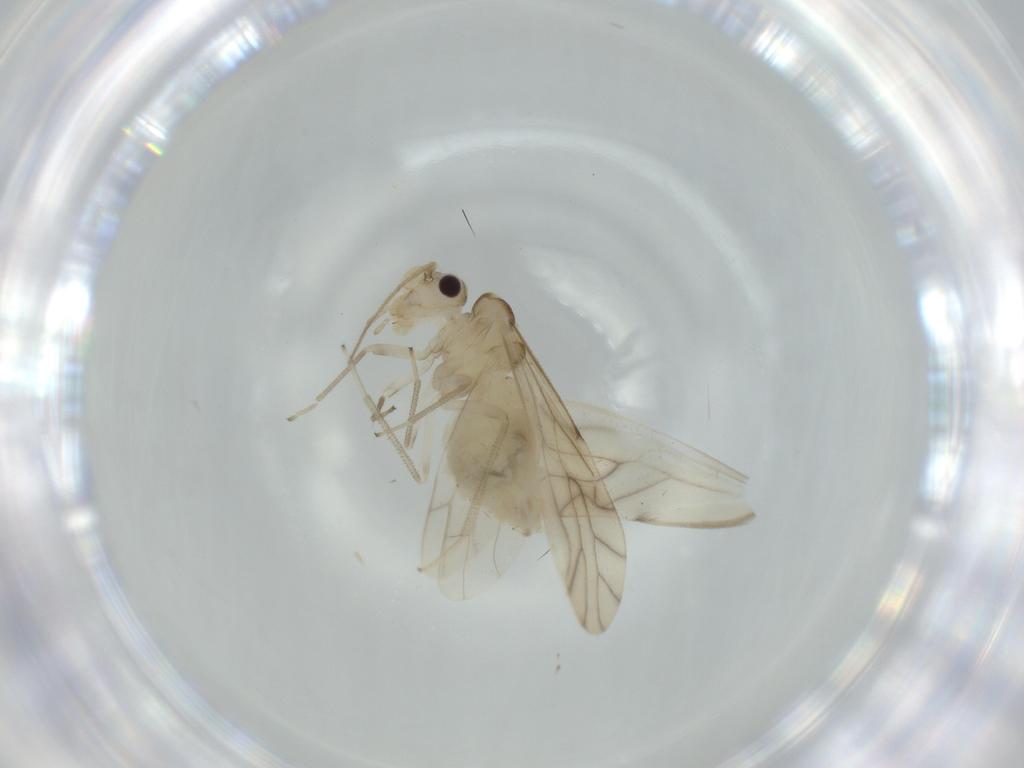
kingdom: Animalia
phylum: Arthropoda
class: Insecta
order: Psocodea
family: Caeciliusidae
